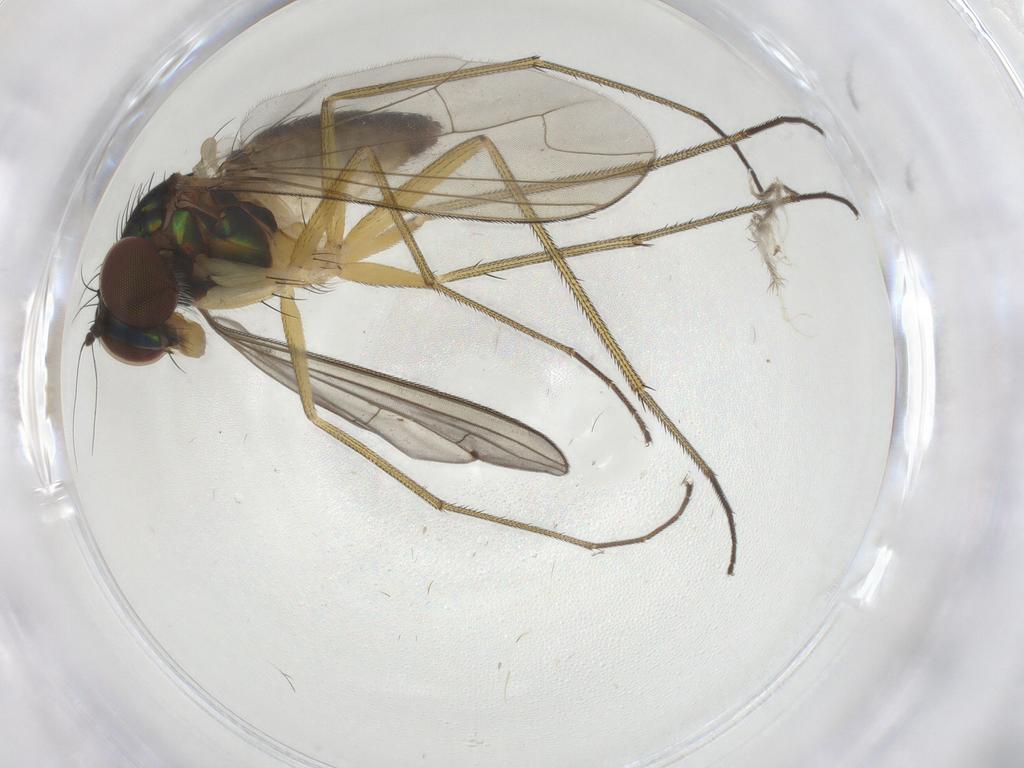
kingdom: Animalia
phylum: Arthropoda
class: Insecta
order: Diptera
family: Dolichopodidae
